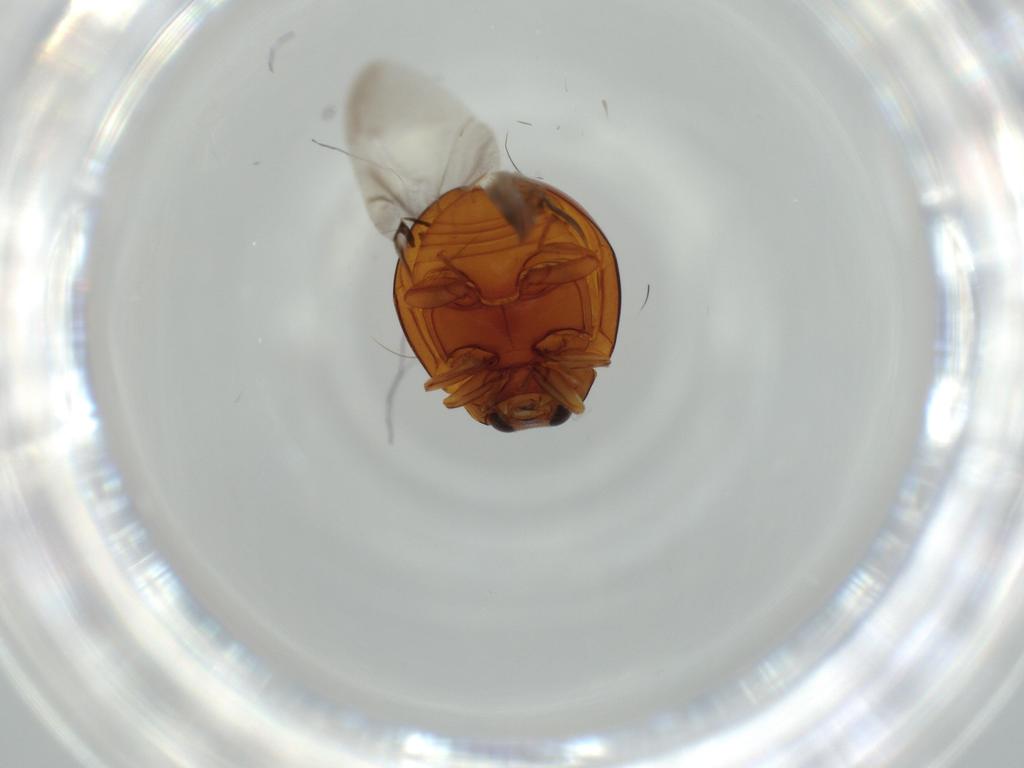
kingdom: Animalia
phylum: Arthropoda
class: Insecta
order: Coleoptera
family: Coccinellidae
